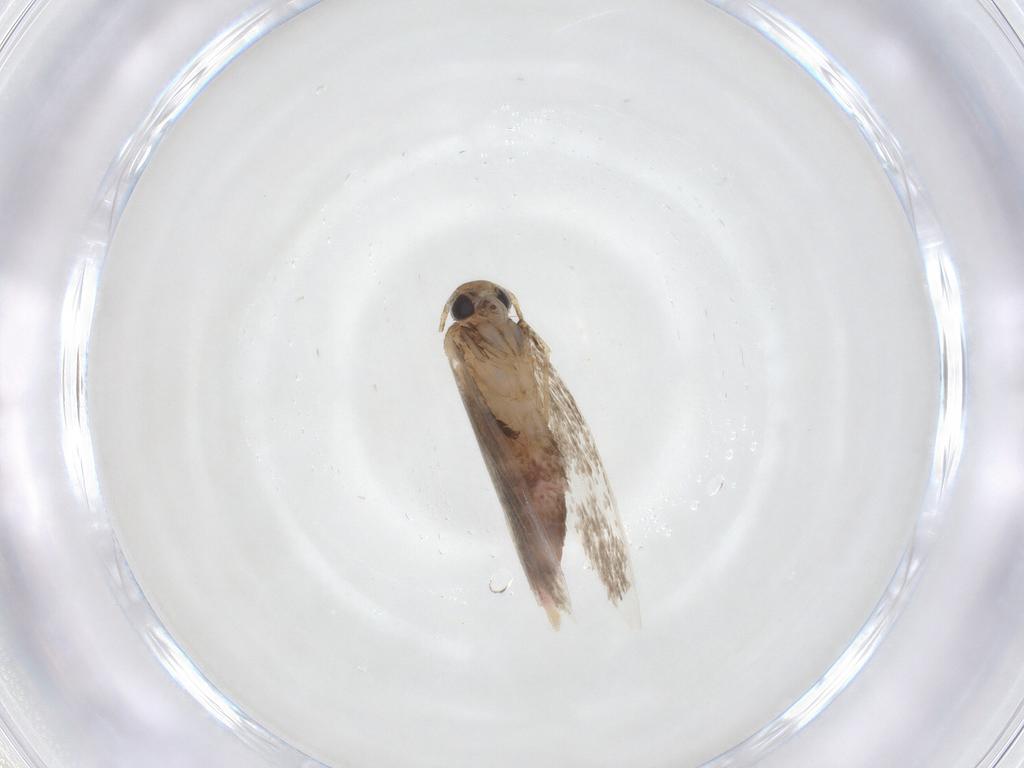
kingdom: Animalia
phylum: Arthropoda
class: Insecta
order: Lepidoptera
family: Gelechiidae
